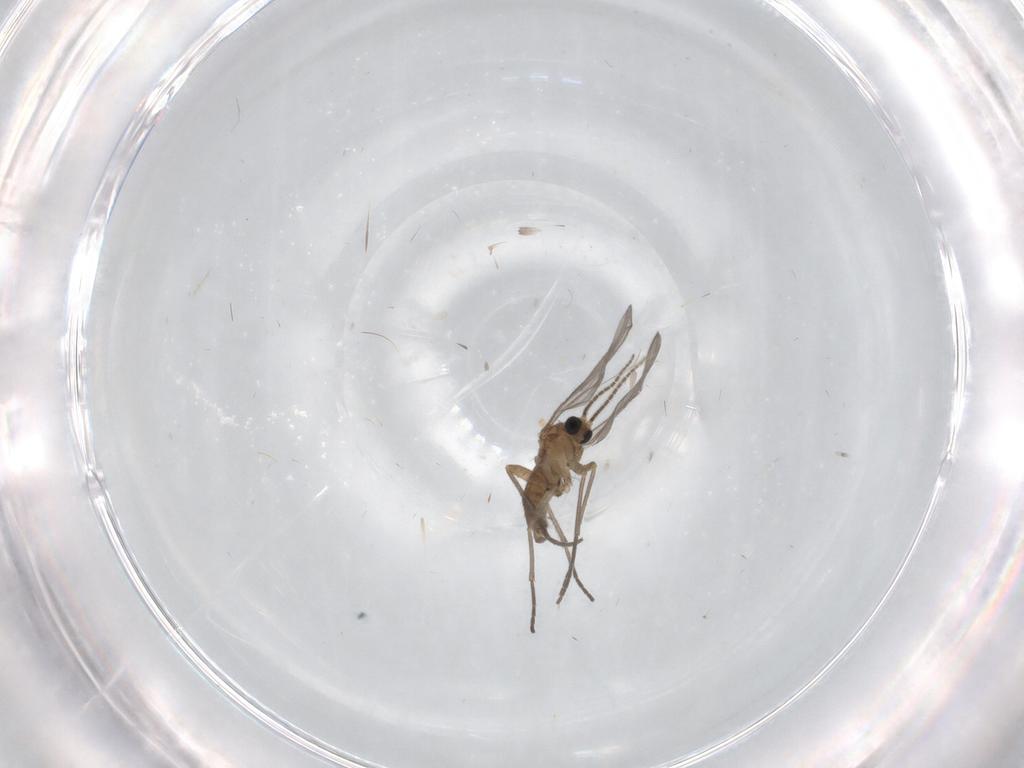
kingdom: Animalia
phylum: Arthropoda
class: Insecta
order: Diptera
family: Sciaridae
